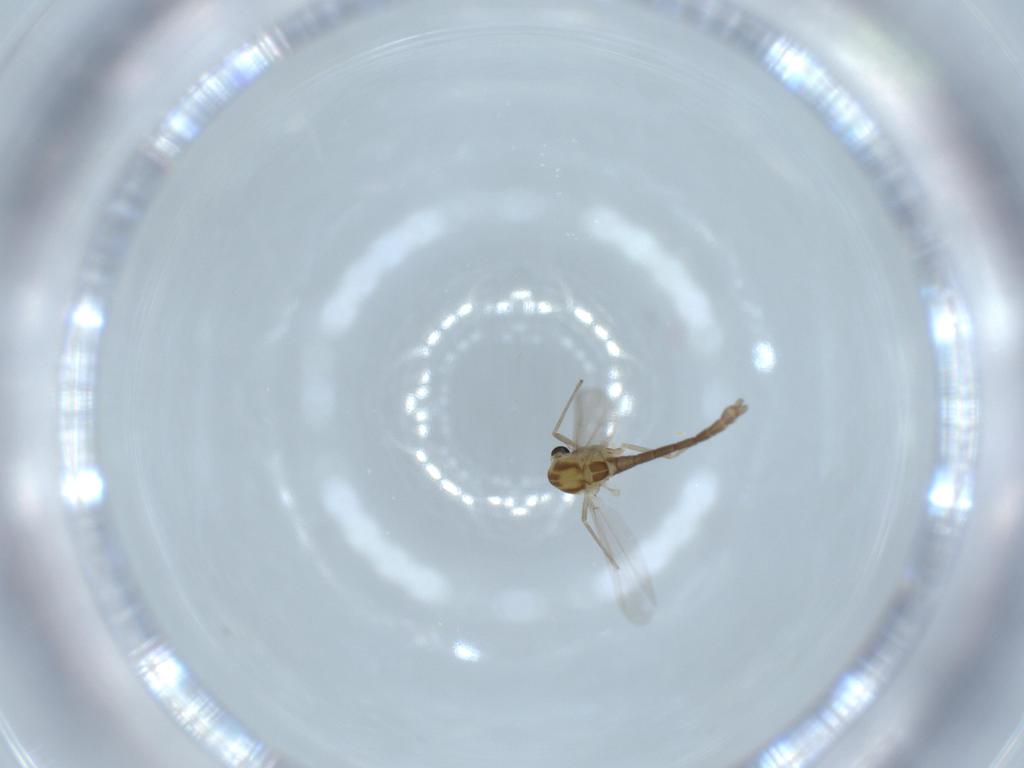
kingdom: Animalia
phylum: Arthropoda
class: Insecta
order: Diptera
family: Chironomidae
